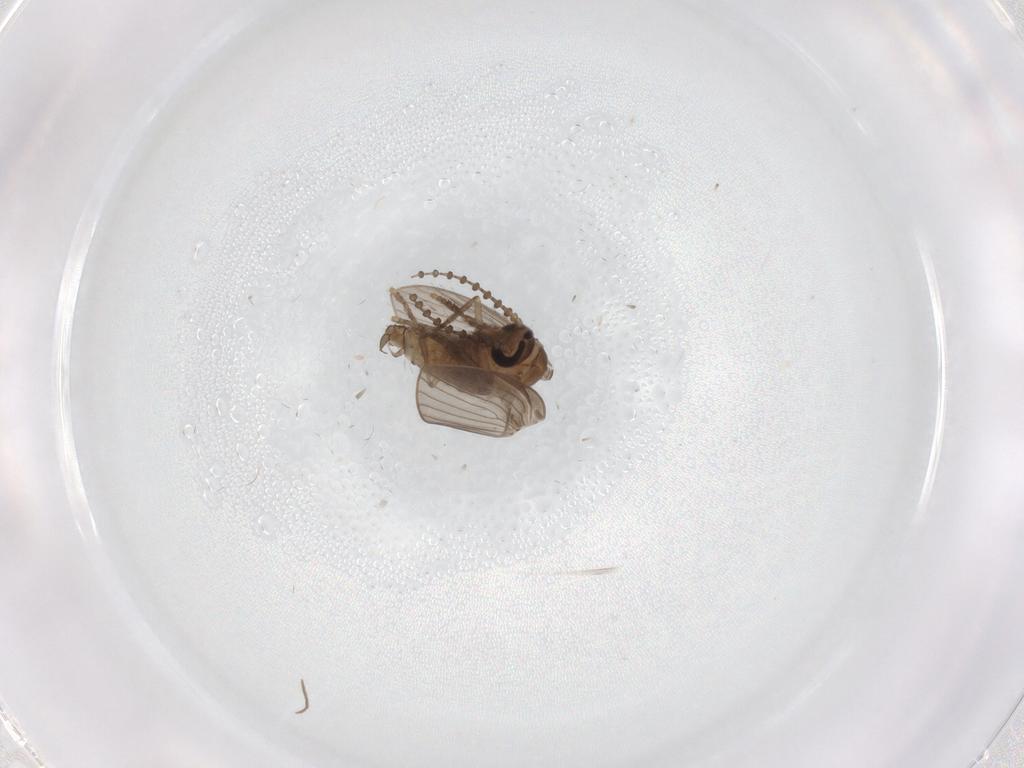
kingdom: Animalia
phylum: Arthropoda
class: Insecta
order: Diptera
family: Psychodidae
